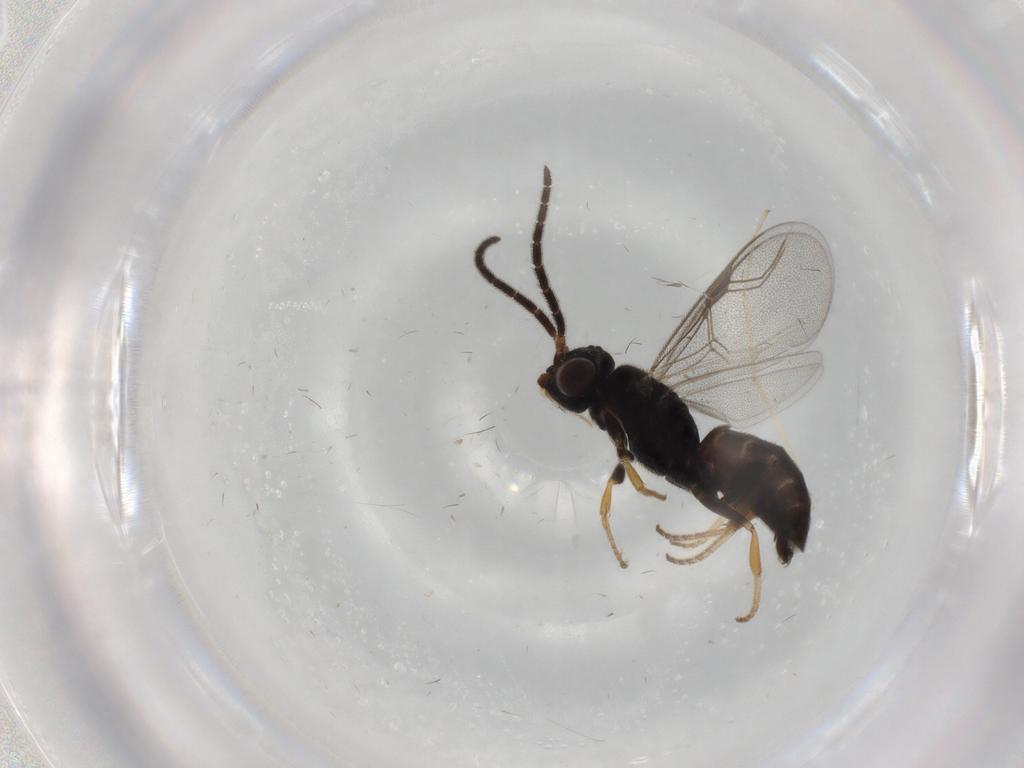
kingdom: Animalia
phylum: Arthropoda
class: Insecta
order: Hymenoptera
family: Dryinidae
